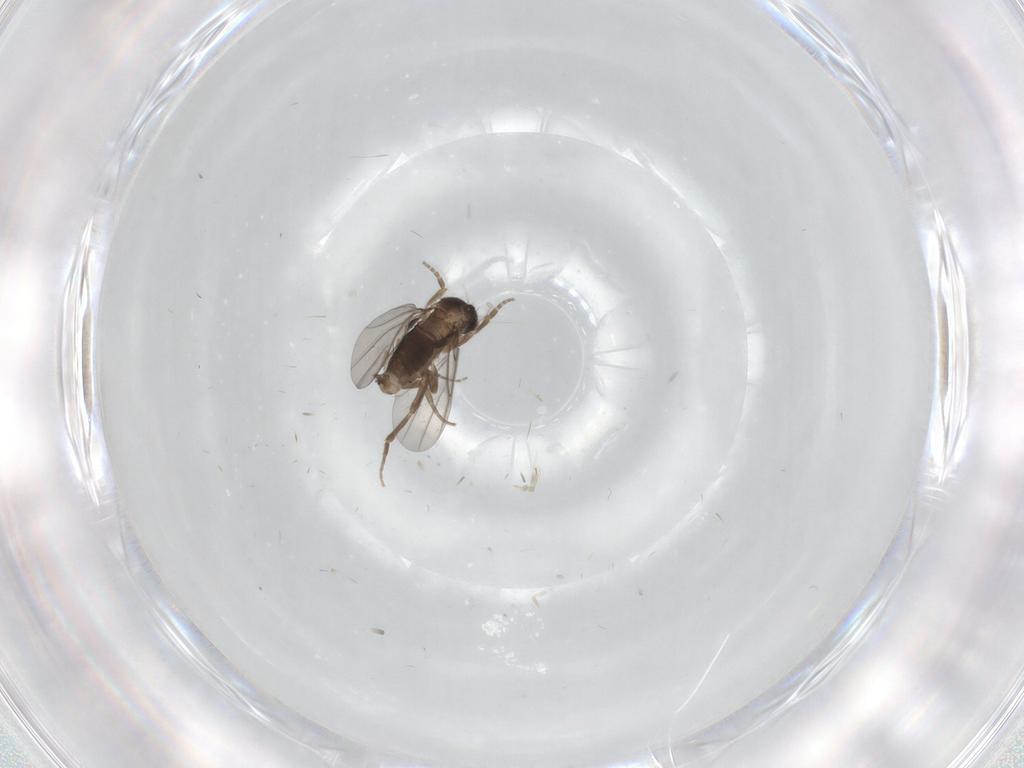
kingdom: Animalia
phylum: Arthropoda
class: Insecta
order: Diptera
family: Phoridae
